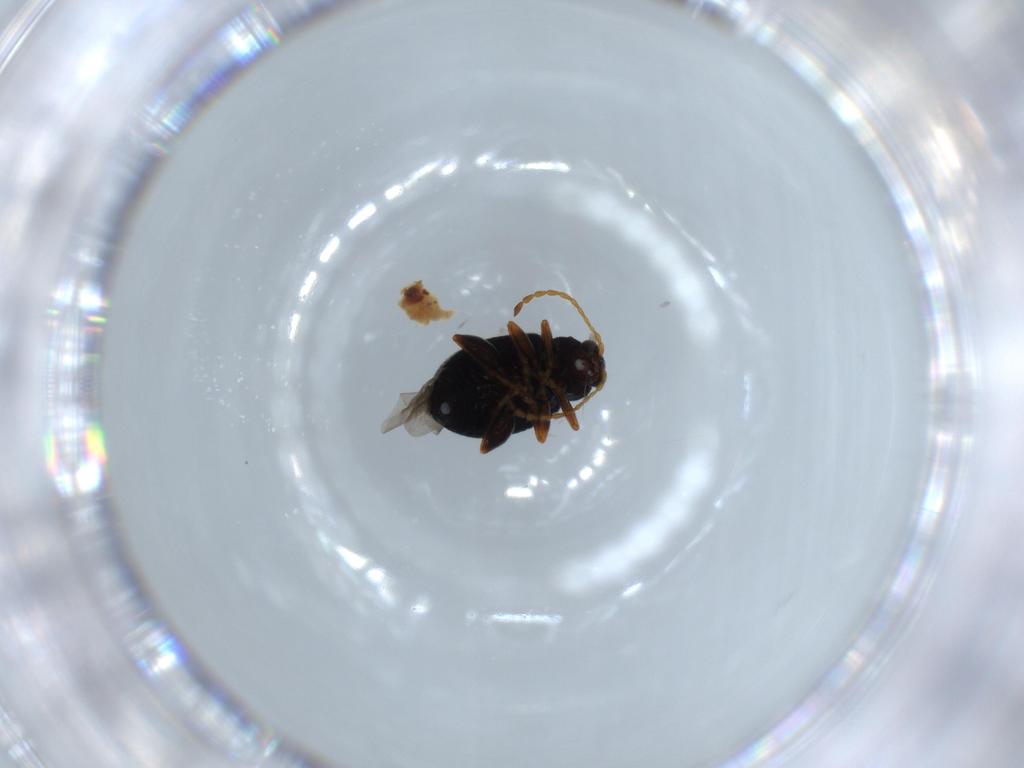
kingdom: Animalia
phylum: Arthropoda
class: Insecta
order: Coleoptera
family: Chrysomelidae
